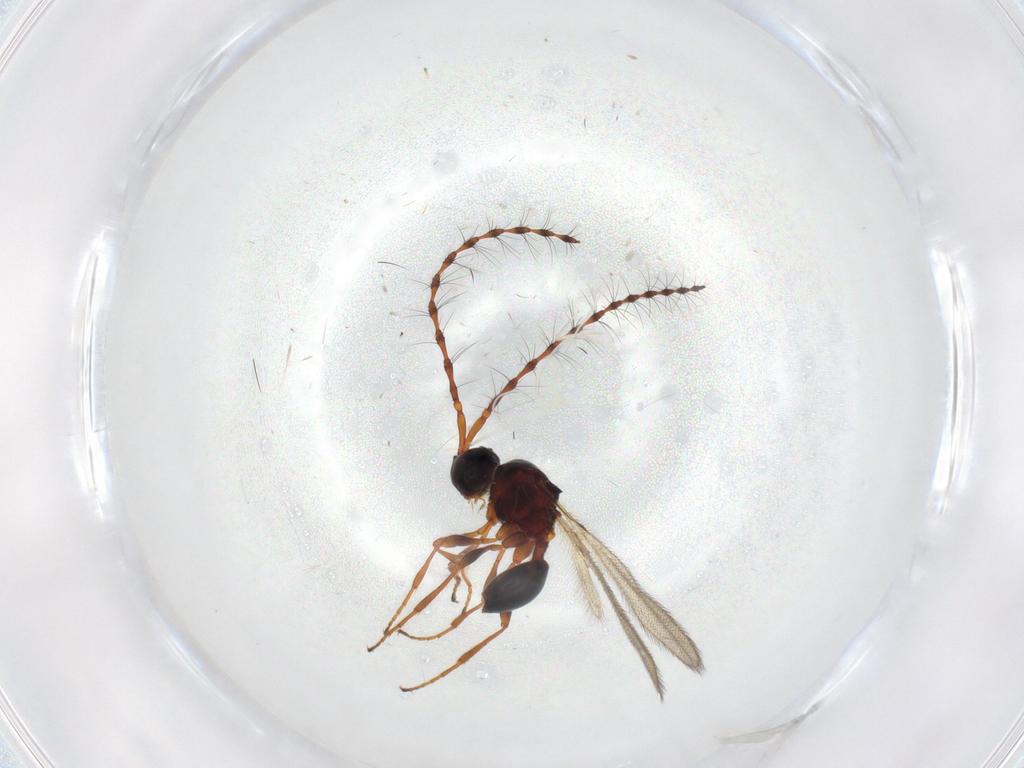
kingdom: Animalia
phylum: Arthropoda
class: Insecta
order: Hymenoptera
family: Diapriidae
